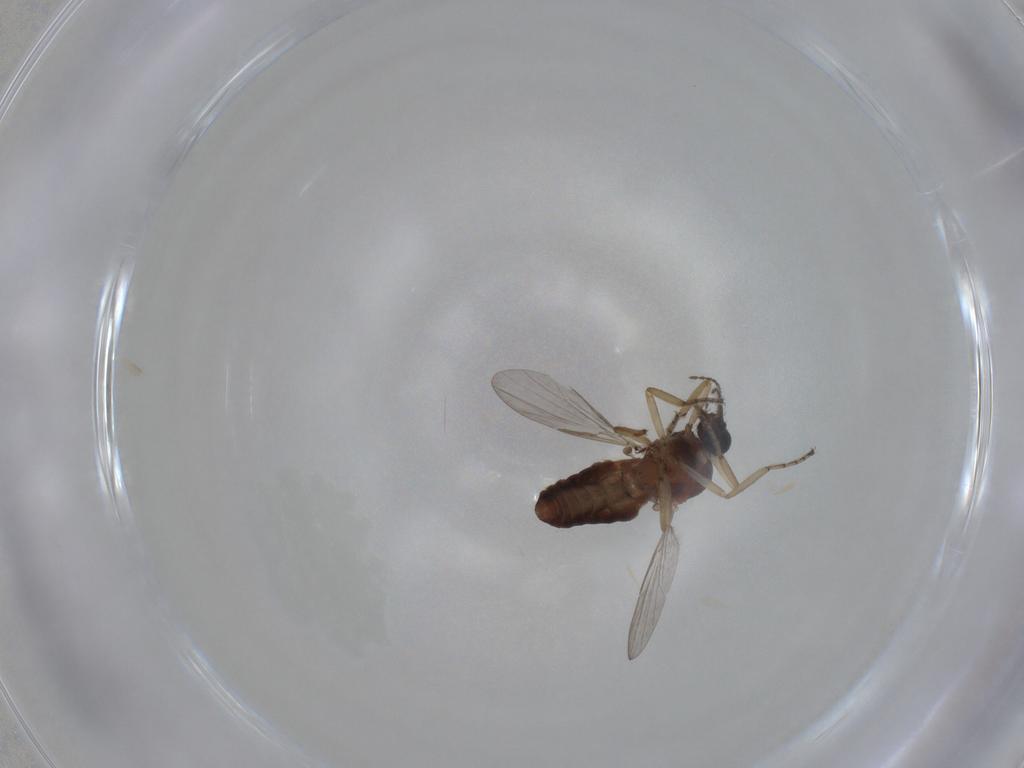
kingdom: Animalia
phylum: Arthropoda
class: Insecta
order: Diptera
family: Ceratopogonidae
